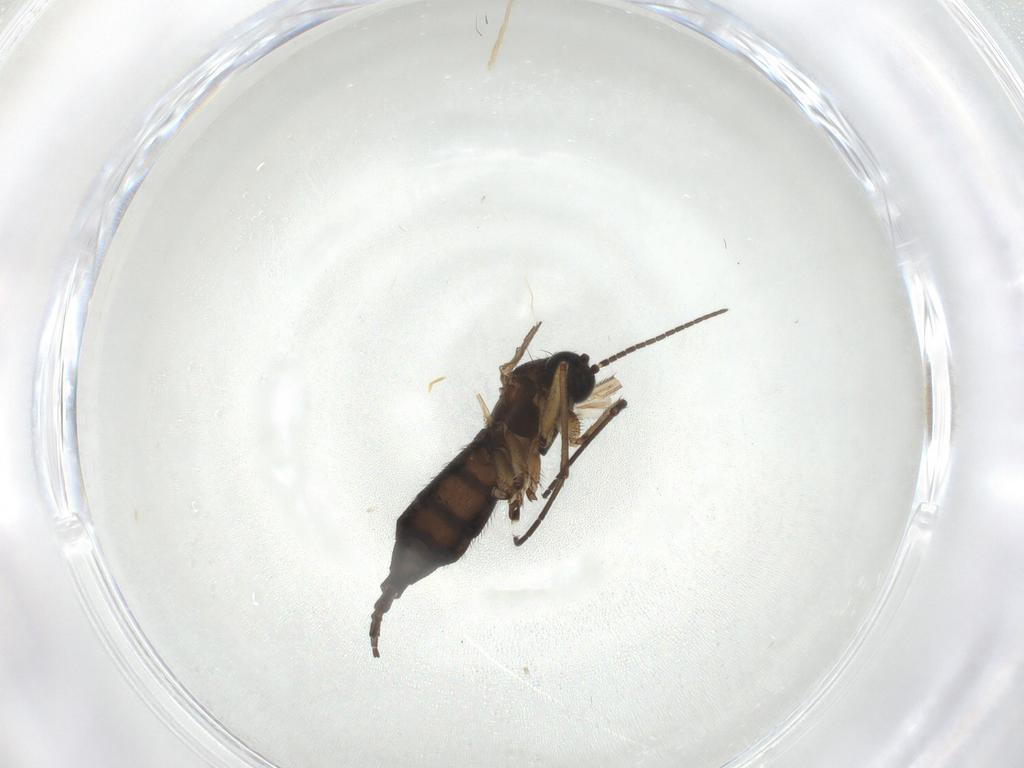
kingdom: Animalia
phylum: Arthropoda
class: Insecta
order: Diptera
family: Sciaridae
